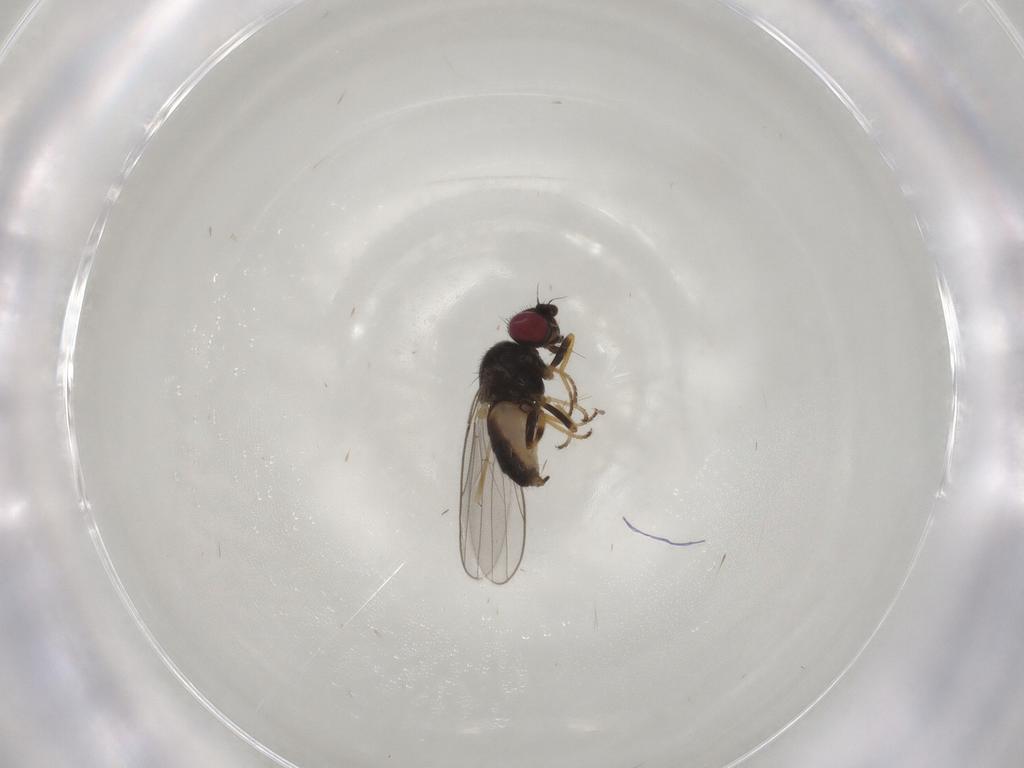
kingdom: Animalia
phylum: Arthropoda
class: Insecta
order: Diptera
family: Chloropidae
